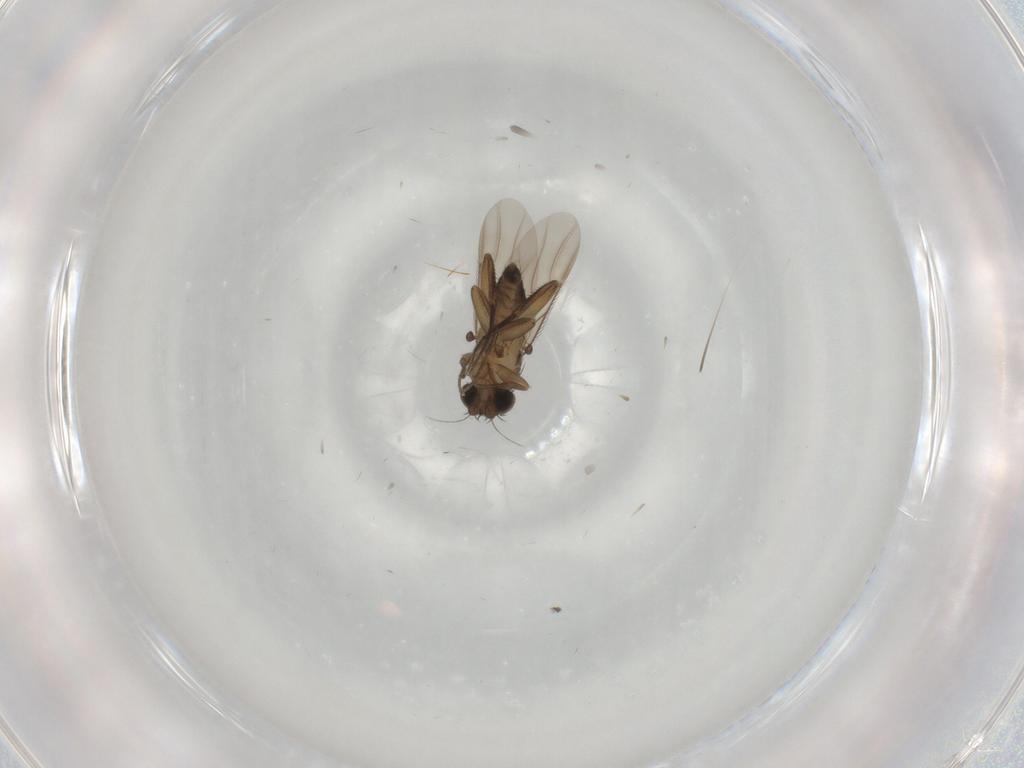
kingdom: Animalia
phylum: Arthropoda
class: Insecta
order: Diptera
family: Phoridae
